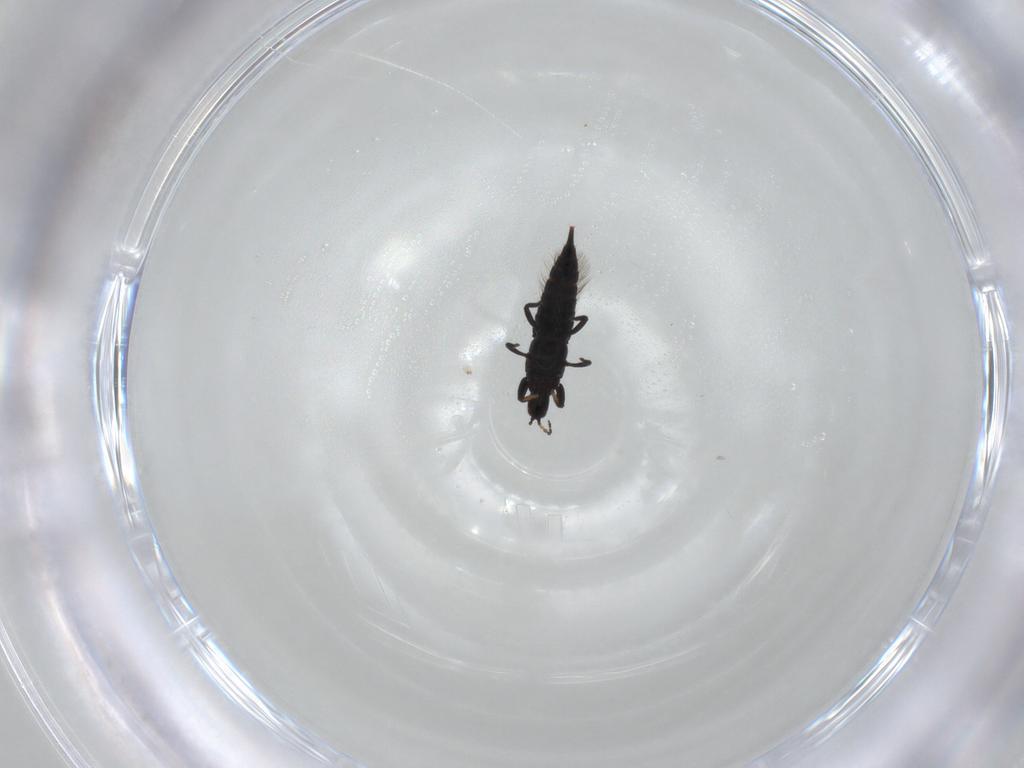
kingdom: Animalia
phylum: Arthropoda
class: Insecta
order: Thysanoptera
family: Phlaeothripidae
